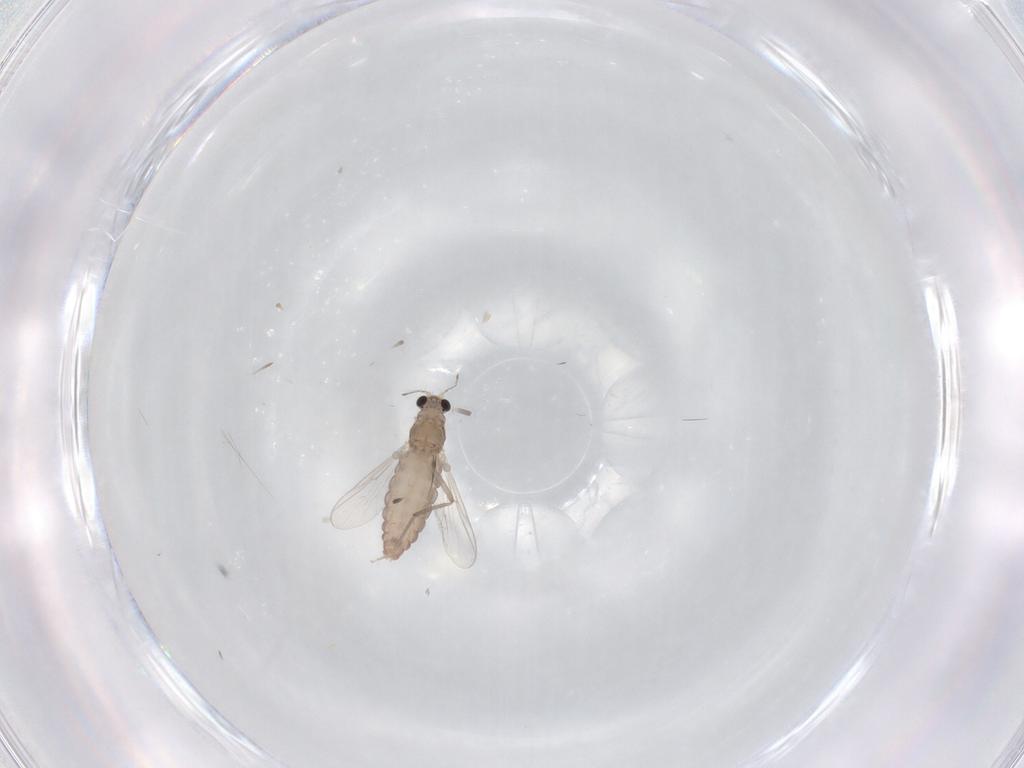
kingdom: Animalia
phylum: Arthropoda
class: Insecta
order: Diptera
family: Chironomidae
